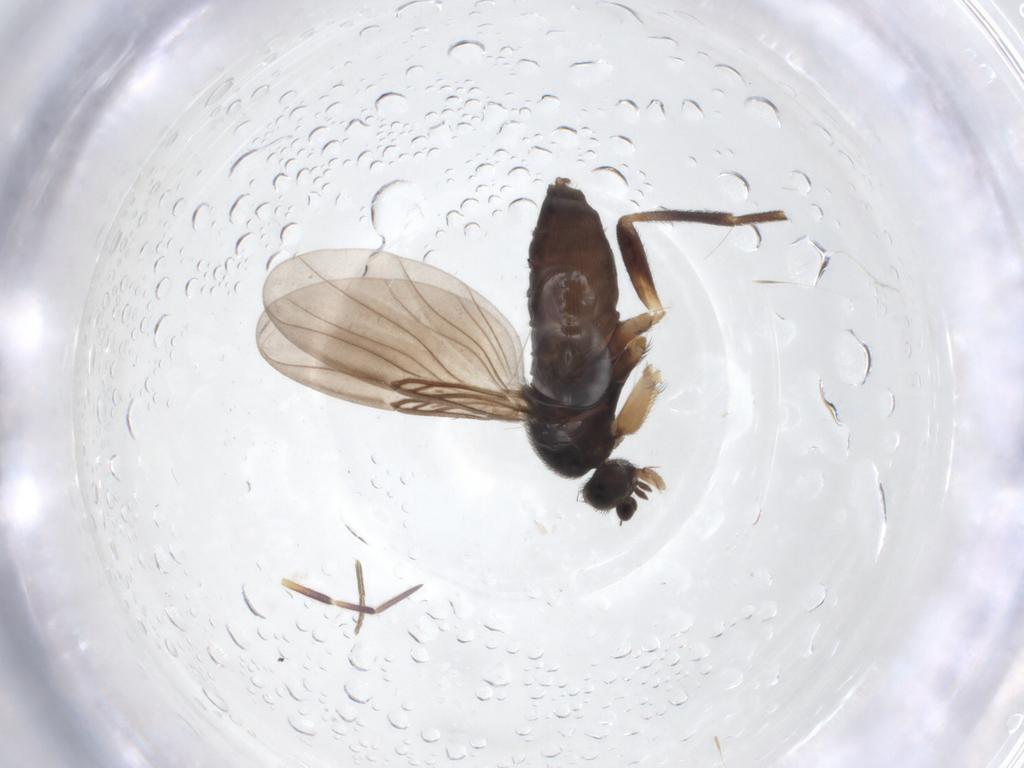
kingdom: Animalia
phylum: Arthropoda
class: Insecta
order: Diptera
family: Phoridae
